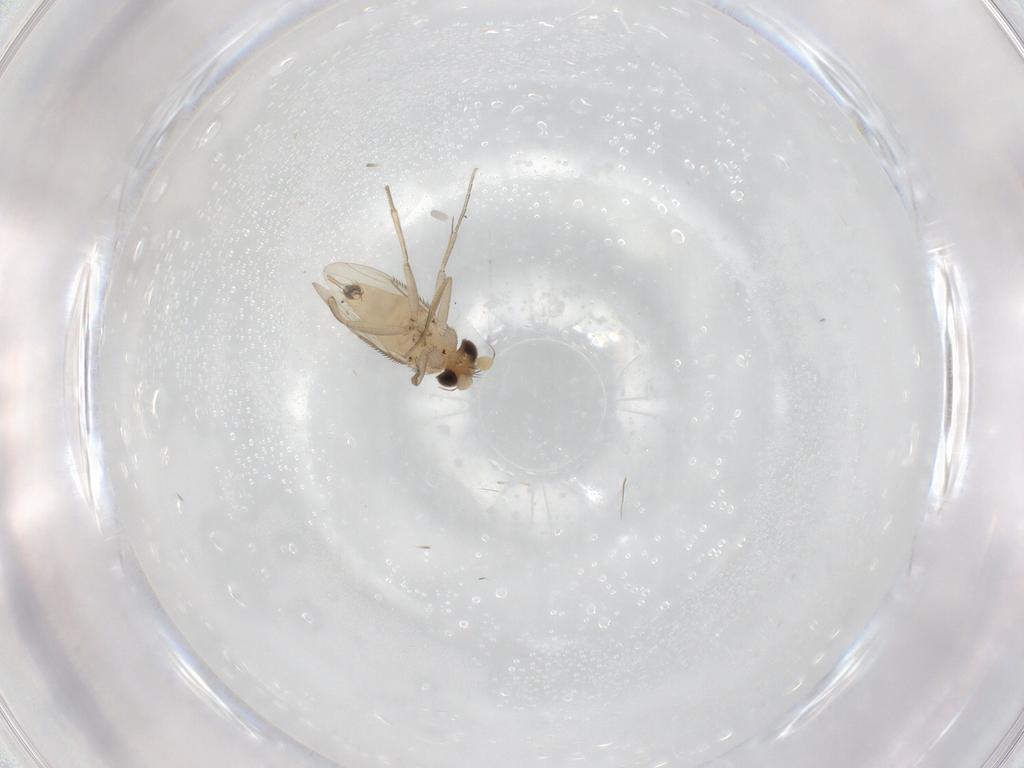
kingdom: Animalia
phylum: Arthropoda
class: Insecta
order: Diptera
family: Phoridae
